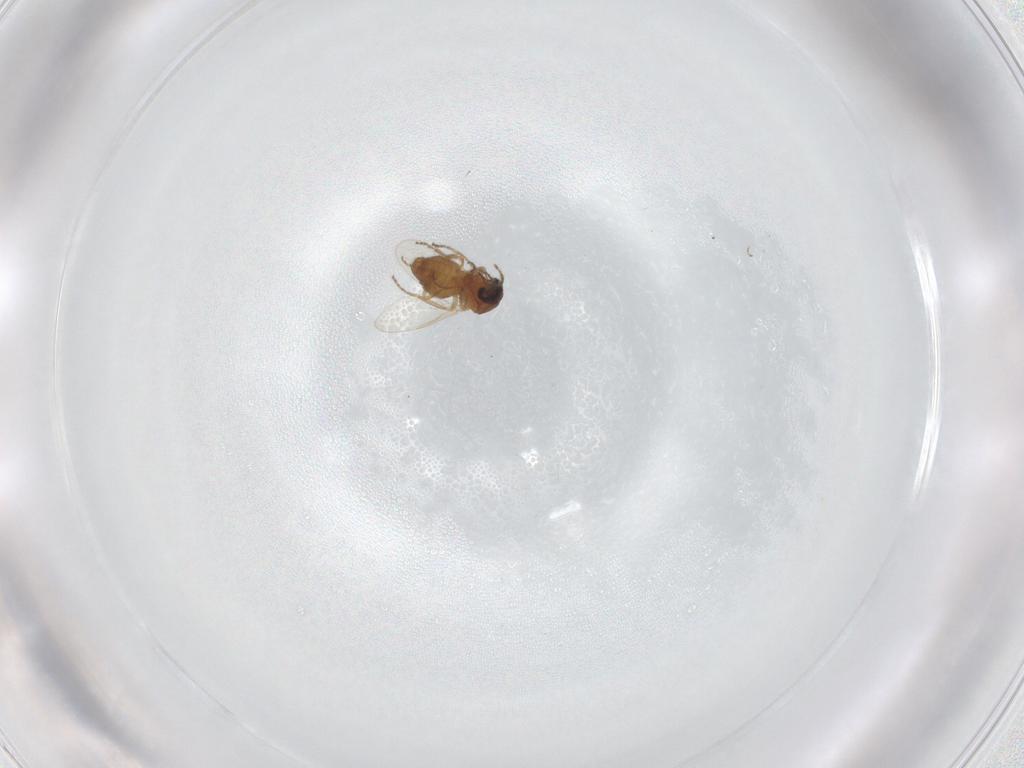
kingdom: Animalia
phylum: Arthropoda
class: Insecta
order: Diptera
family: Ceratopogonidae
